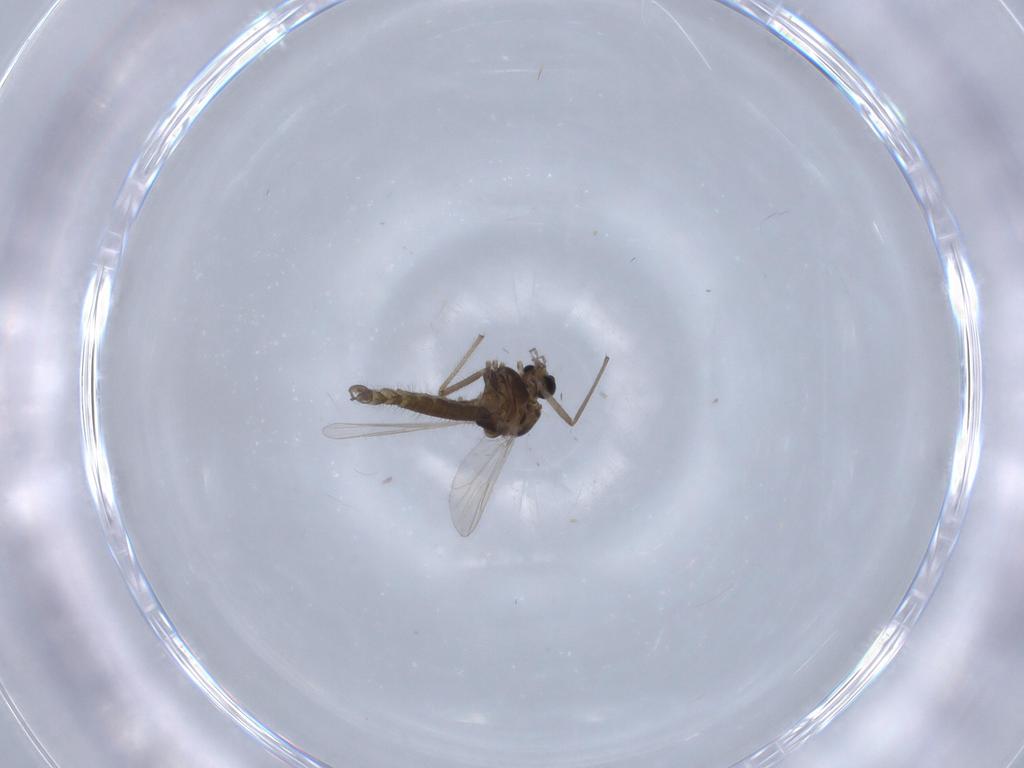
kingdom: Animalia
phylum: Arthropoda
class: Insecta
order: Diptera
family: Chironomidae
